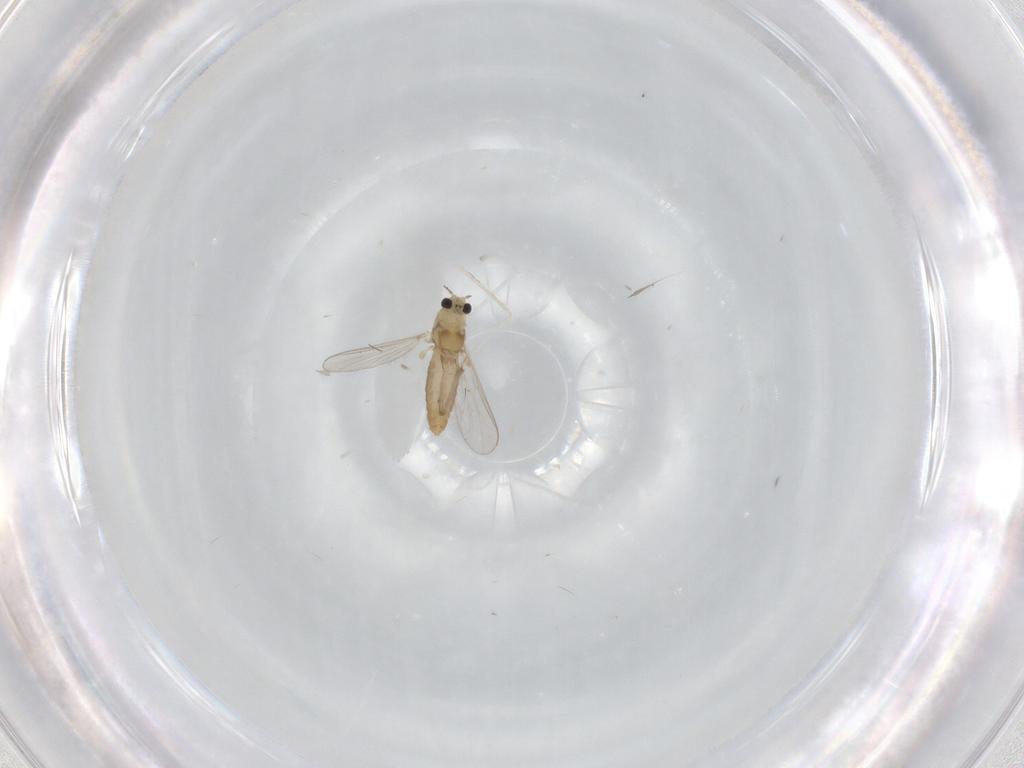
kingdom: Animalia
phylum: Arthropoda
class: Insecta
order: Diptera
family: Chironomidae
